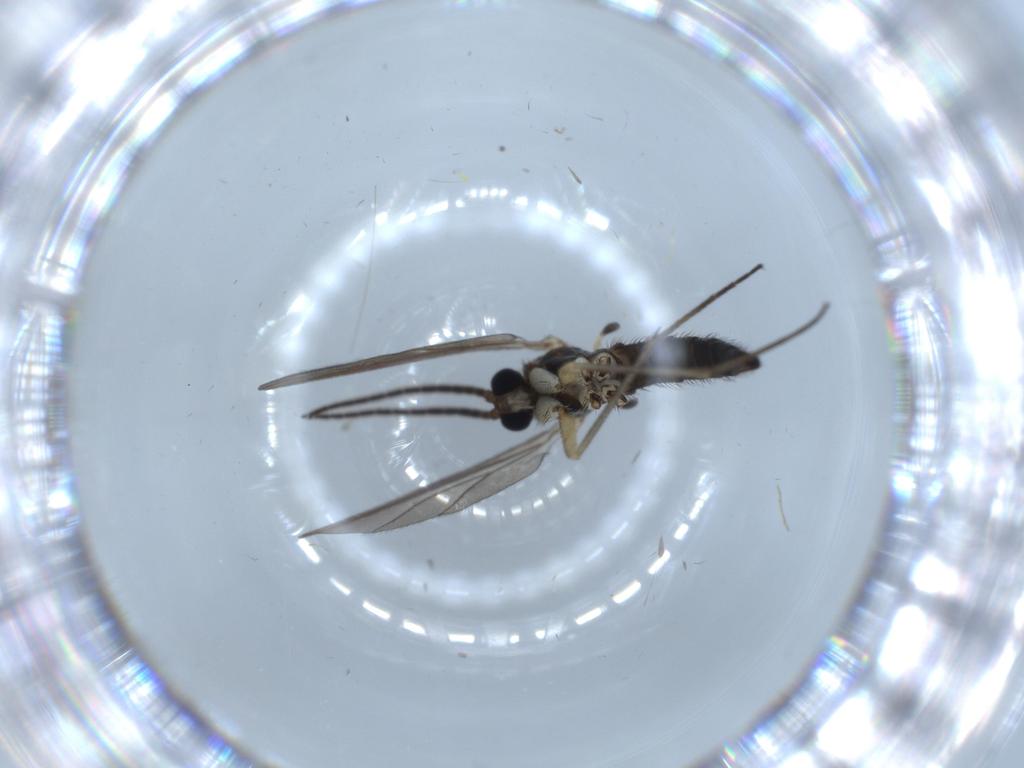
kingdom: Animalia
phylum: Arthropoda
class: Insecta
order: Diptera
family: Sciaridae
